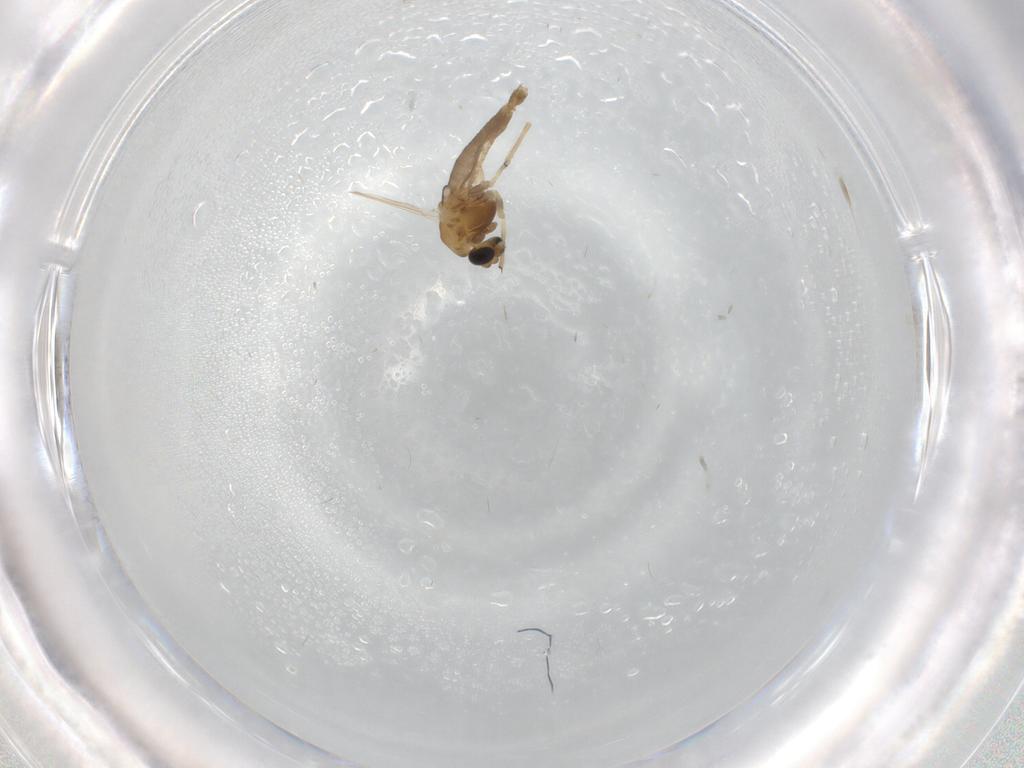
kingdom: Animalia
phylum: Arthropoda
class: Insecta
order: Diptera
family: Chironomidae
